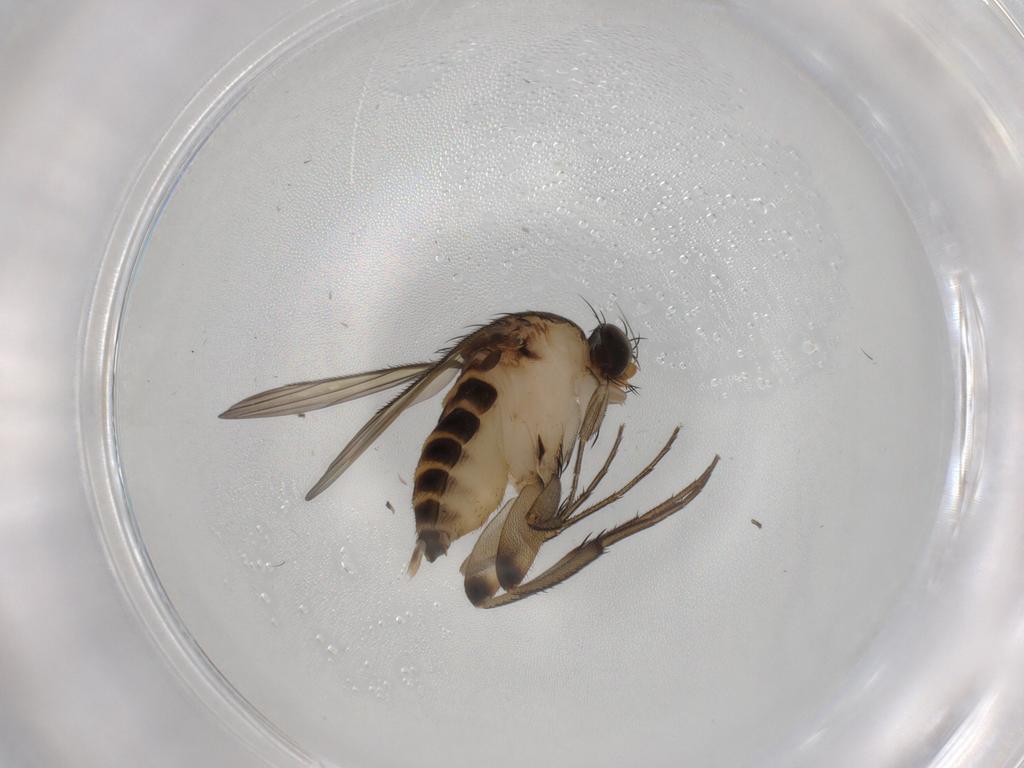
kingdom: Animalia
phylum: Arthropoda
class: Insecta
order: Diptera
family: Phoridae
